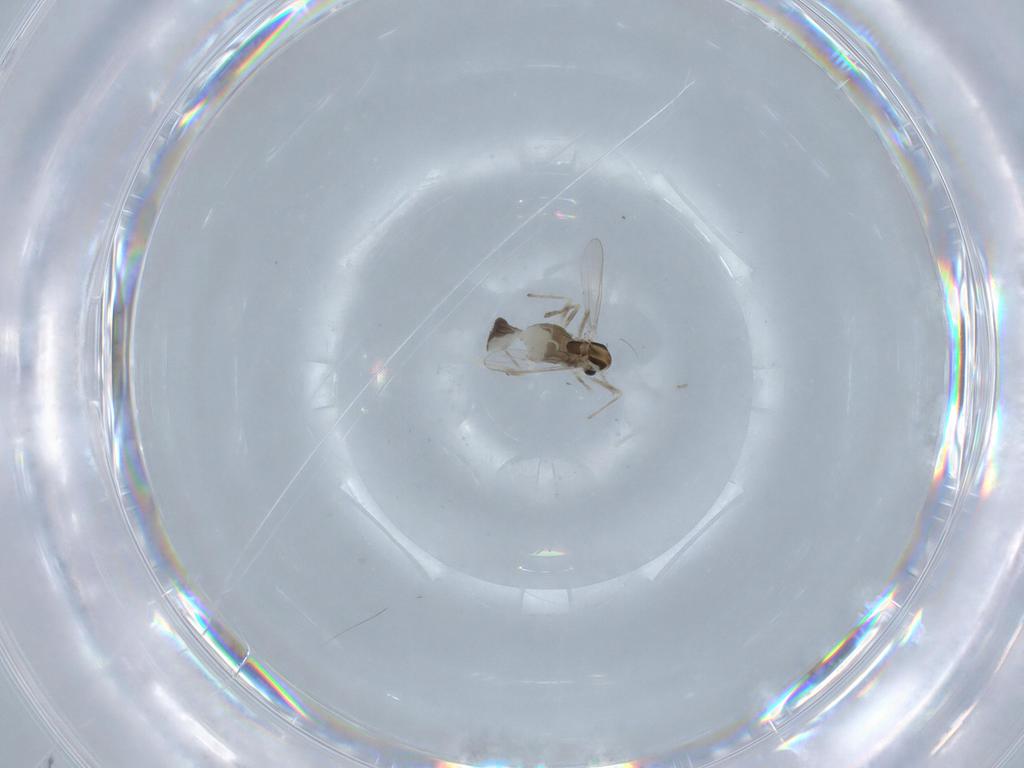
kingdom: Animalia
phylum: Arthropoda
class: Insecta
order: Diptera
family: Chironomidae
